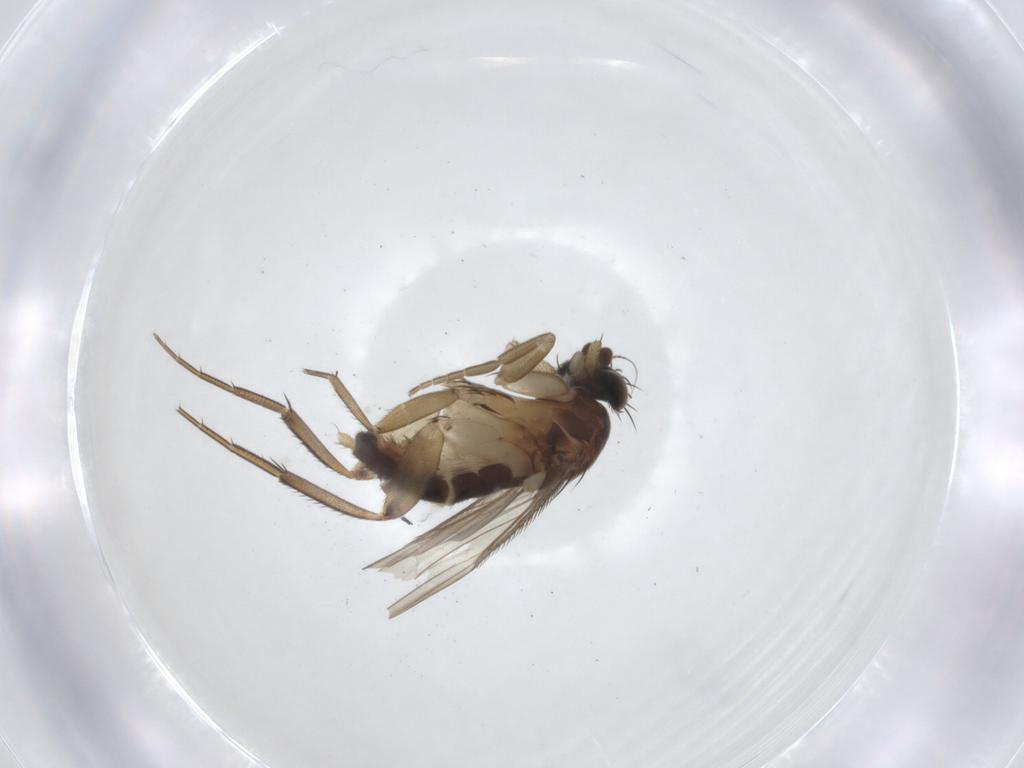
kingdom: Animalia
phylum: Arthropoda
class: Insecta
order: Diptera
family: Phoridae
